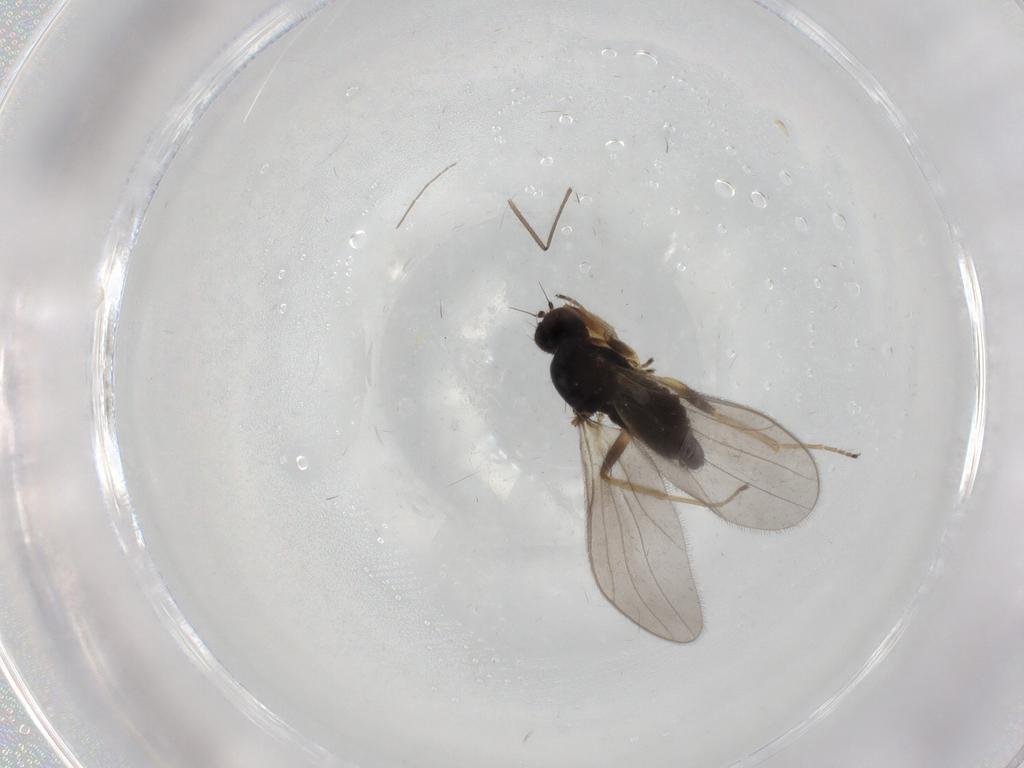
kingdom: Animalia
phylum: Arthropoda
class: Insecta
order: Diptera
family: Hybotidae
